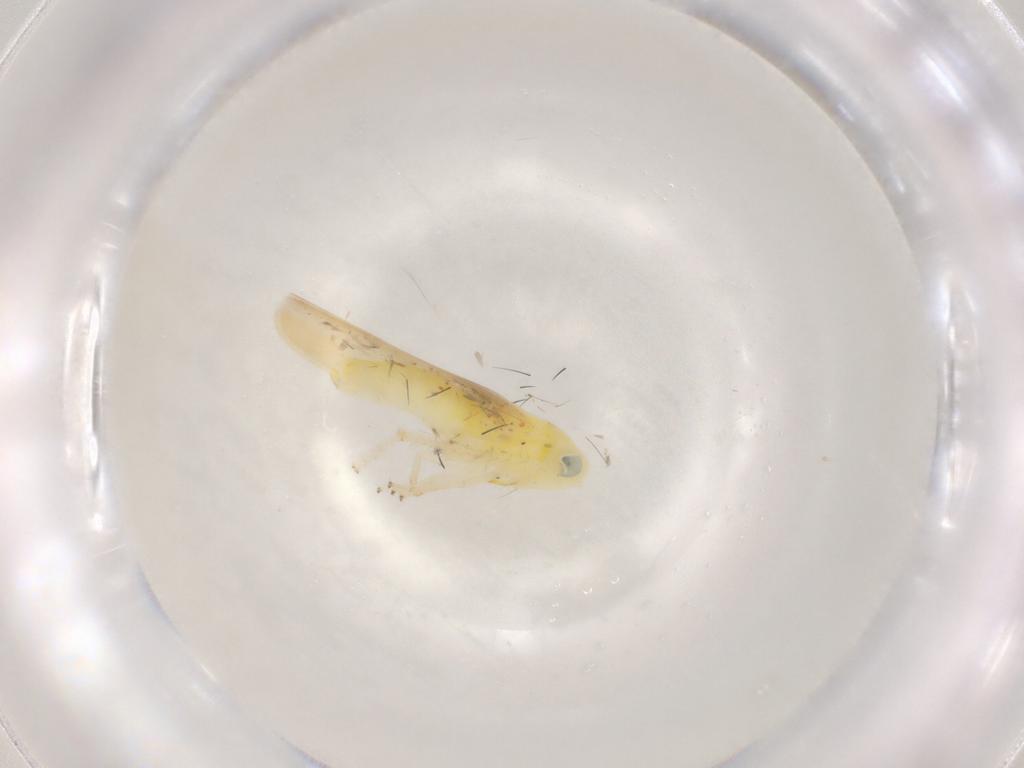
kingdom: Animalia
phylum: Arthropoda
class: Insecta
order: Hemiptera
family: Cicadellidae
